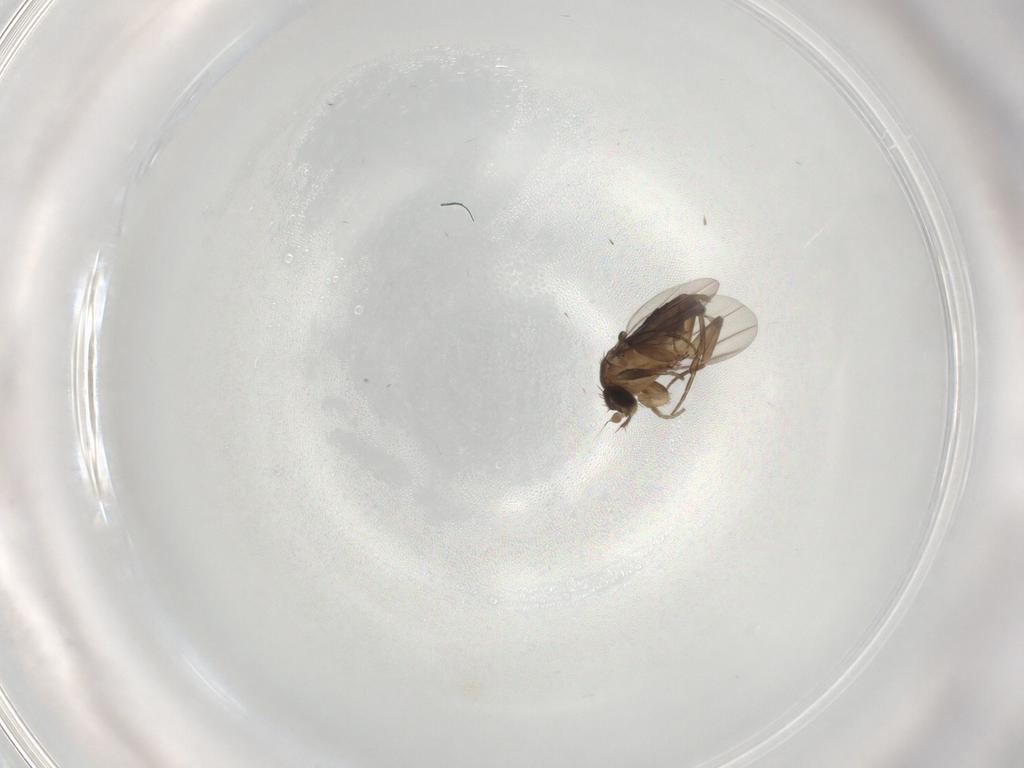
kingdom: Animalia
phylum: Arthropoda
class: Insecta
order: Diptera
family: Phoridae
